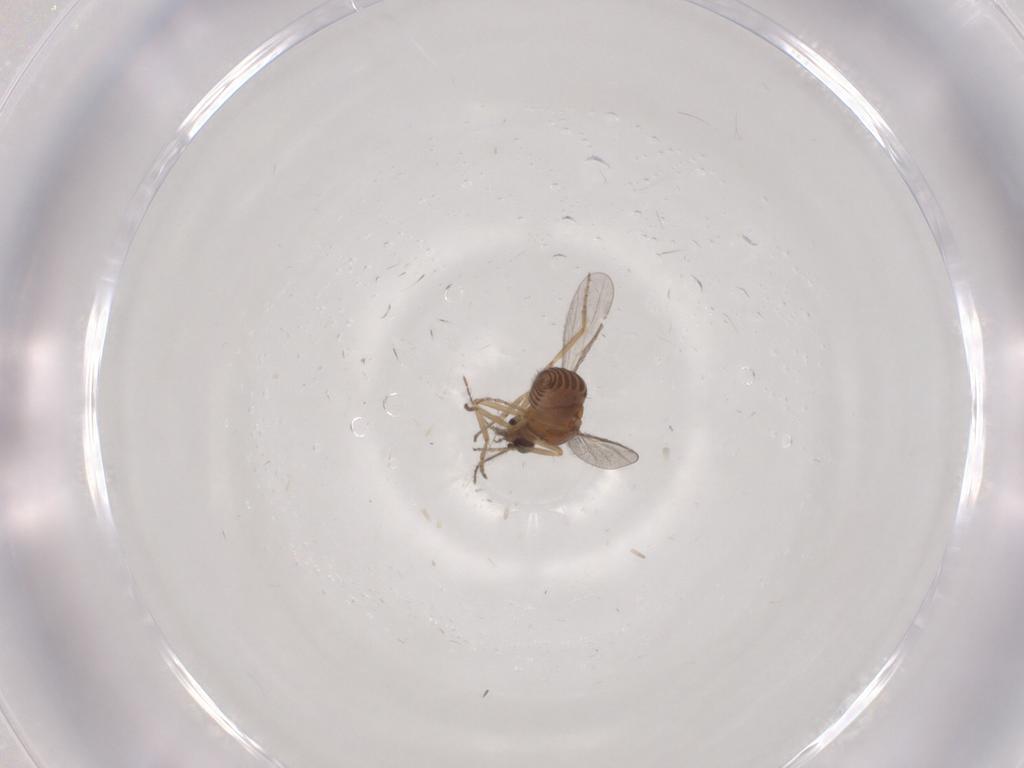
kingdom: Animalia
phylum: Arthropoda
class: Insecta
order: Diptera
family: Ceratopogonidae
